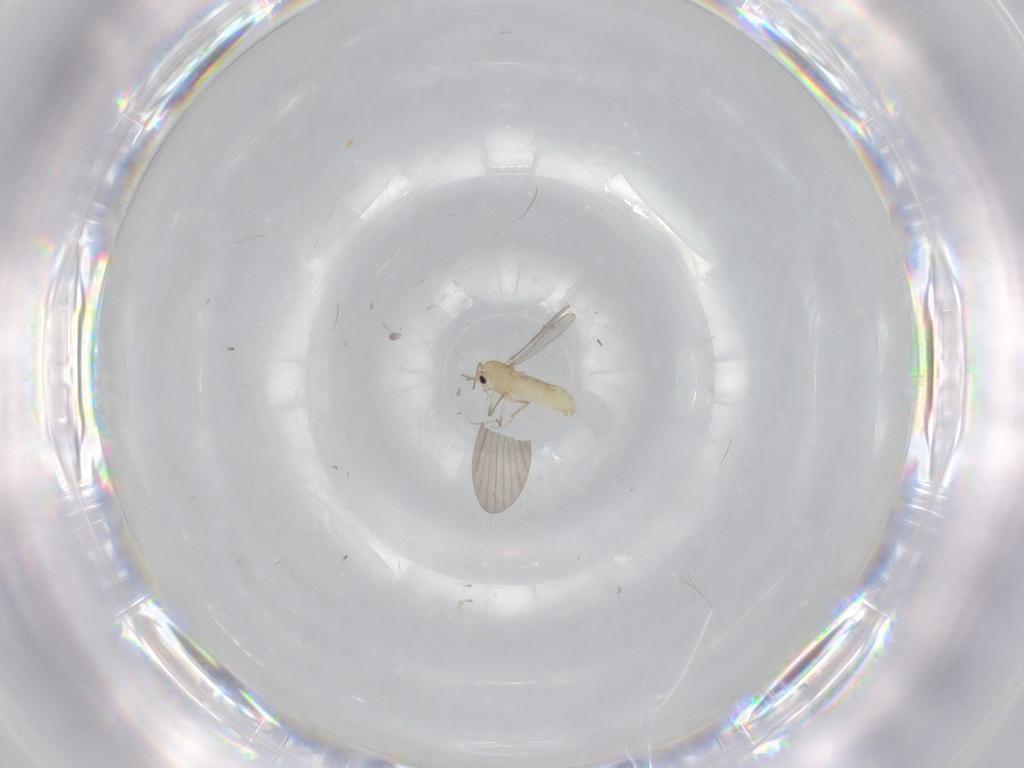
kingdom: Animalia
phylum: Arthropoda
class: Insecta
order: Diptera
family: Chironomidae
